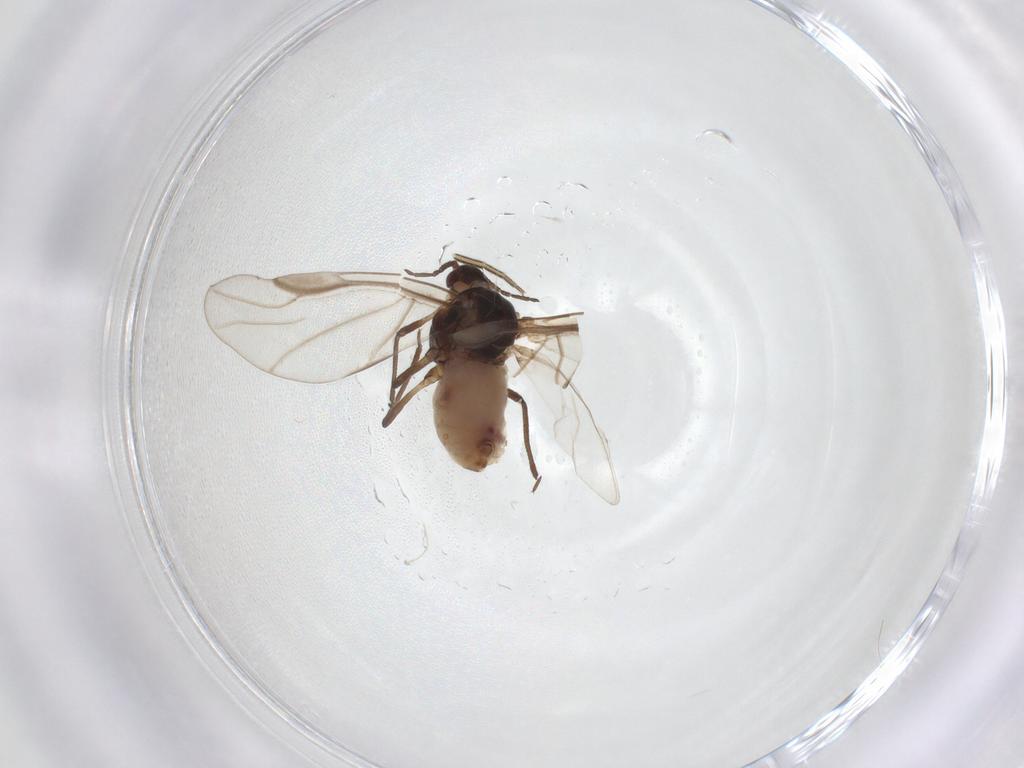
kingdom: Animalia
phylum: Arthropoda
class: Insecta
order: Hemiptera
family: Aphididae
